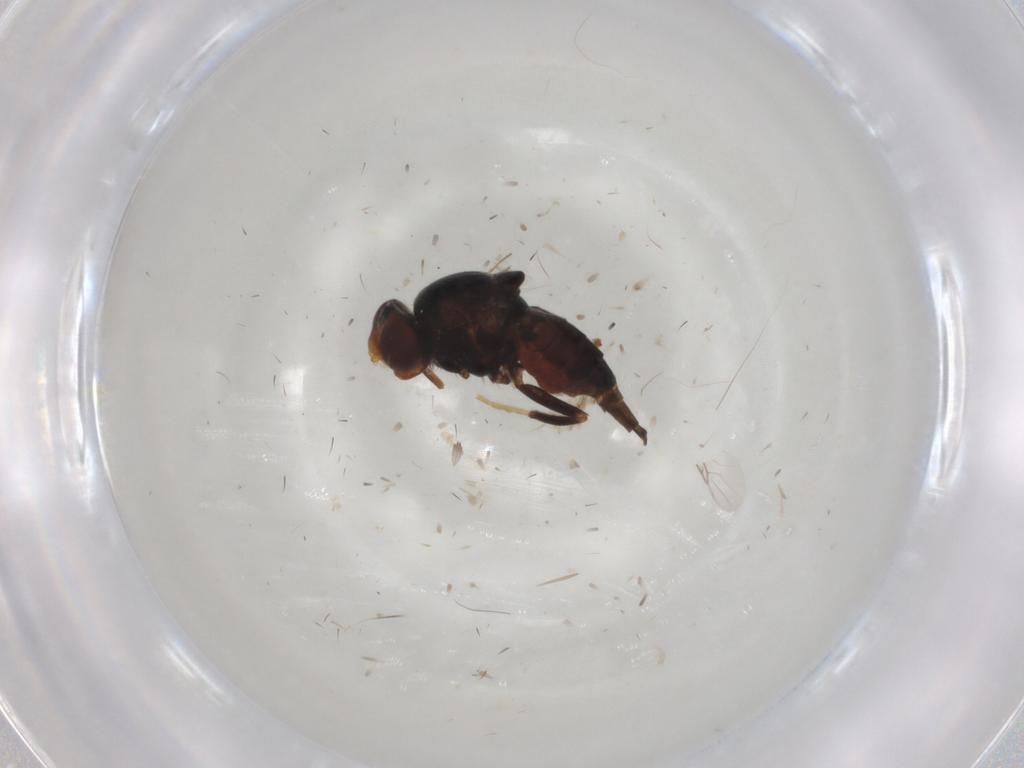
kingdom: Animalia
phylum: Arthropoda
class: Insecta
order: Diptera
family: Chloropidae
